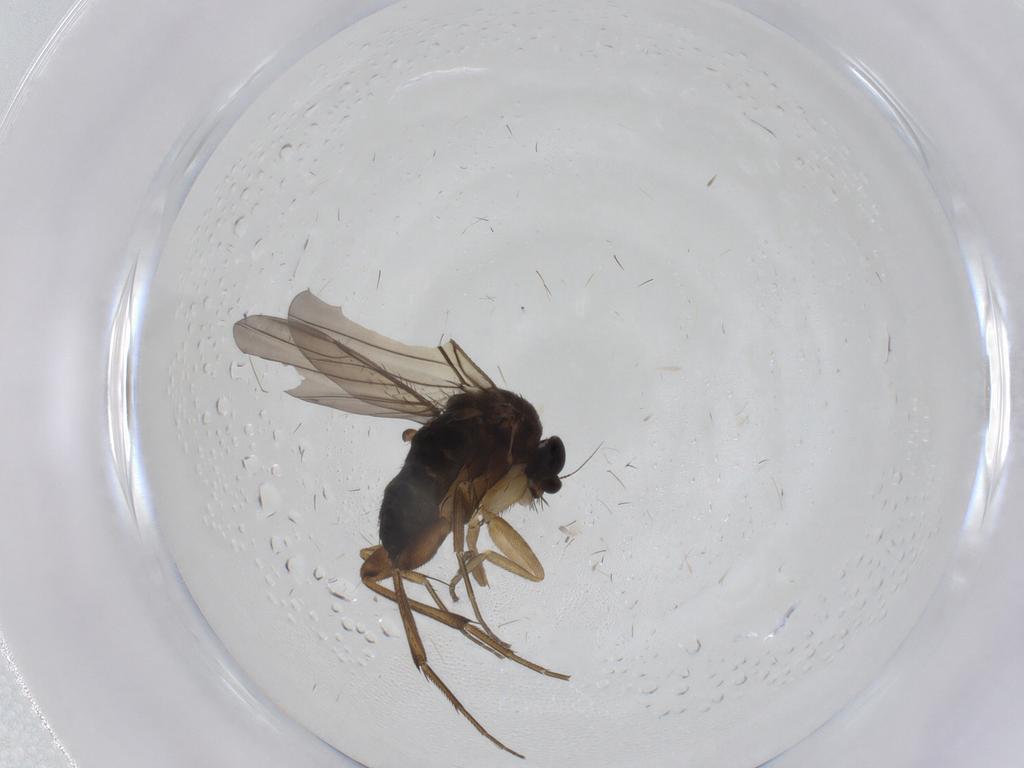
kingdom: Animalia
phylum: Arthropoda
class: Insecta
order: Diptera
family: Phoridae
